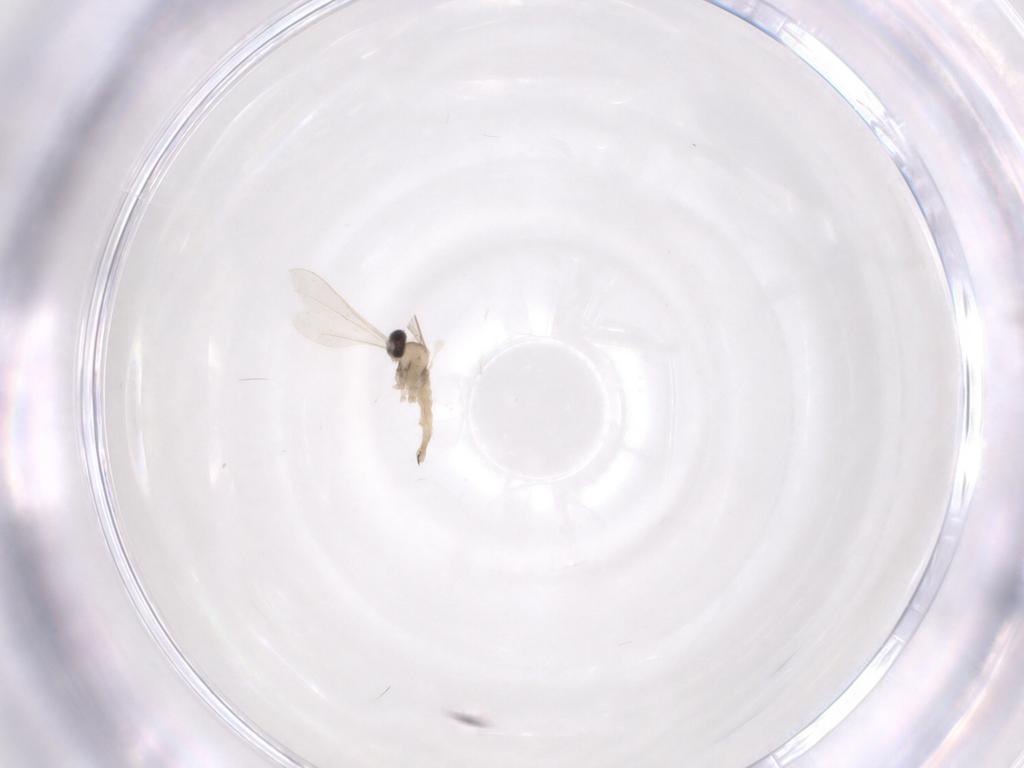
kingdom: Animalia
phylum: Arthropoda
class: Insecta
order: Diptera
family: Cecidomyiidae
